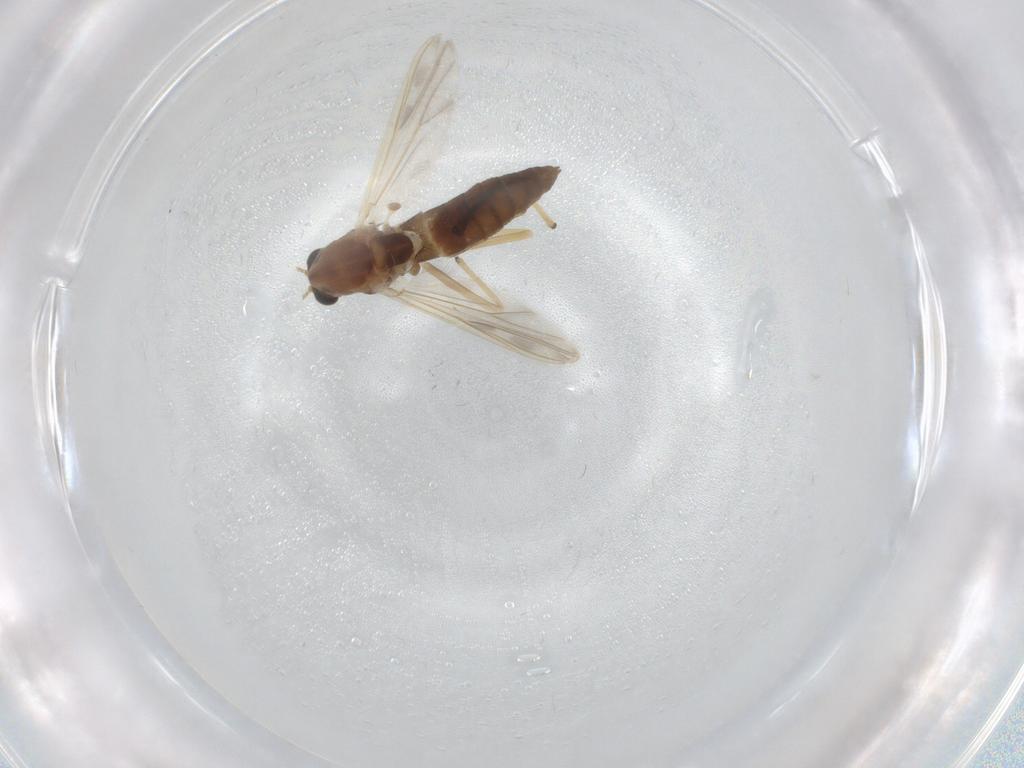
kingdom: Animalia
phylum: Arthropoda
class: Insecta
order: Diptera
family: Chironomidae
